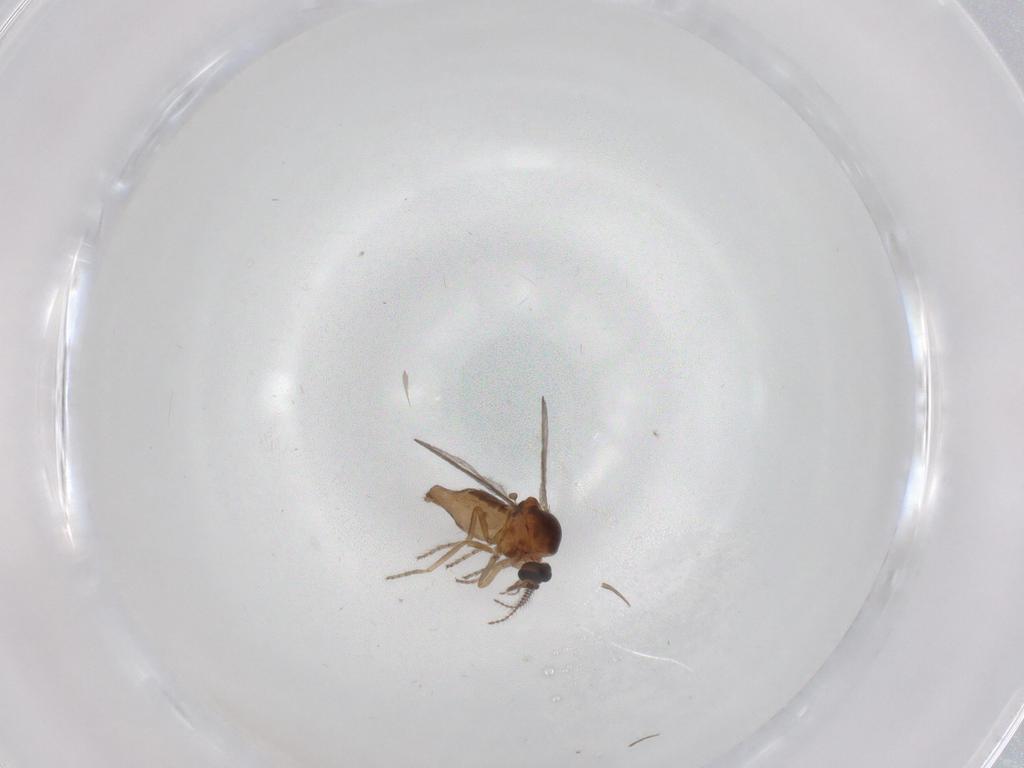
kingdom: Animalia
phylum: Arthropoda
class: Insecta
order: Diptera
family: Ceratopogonidae
